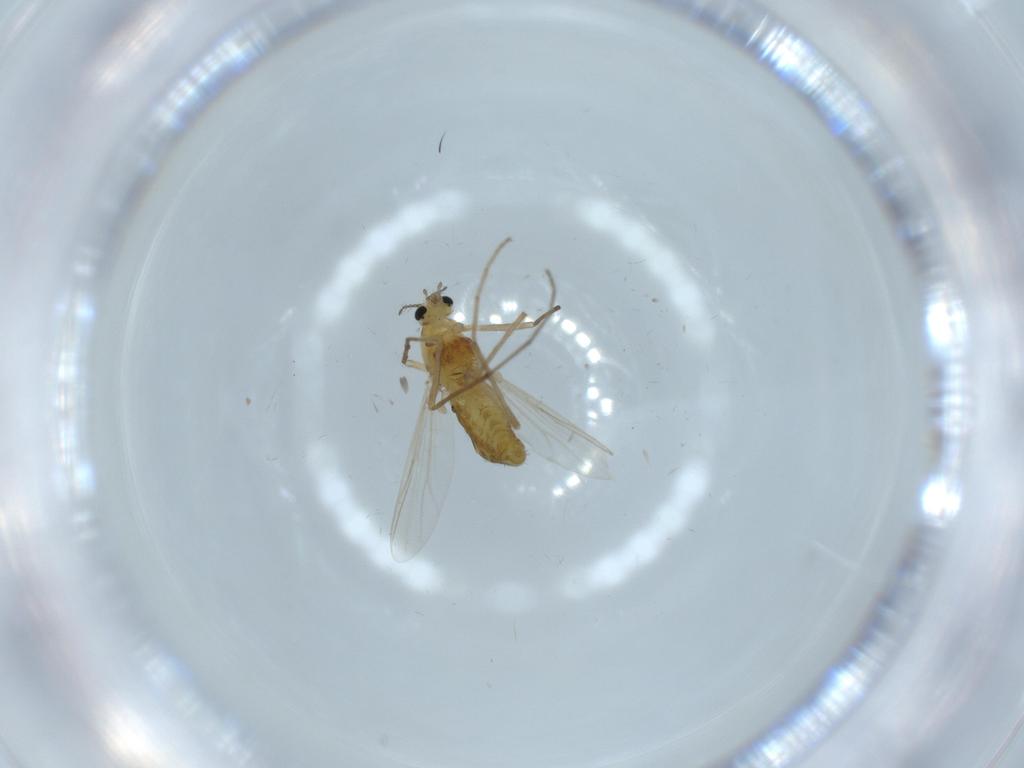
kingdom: Animalia
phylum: Arthropoda
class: Insecta
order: Diptera
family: Chironomidae
